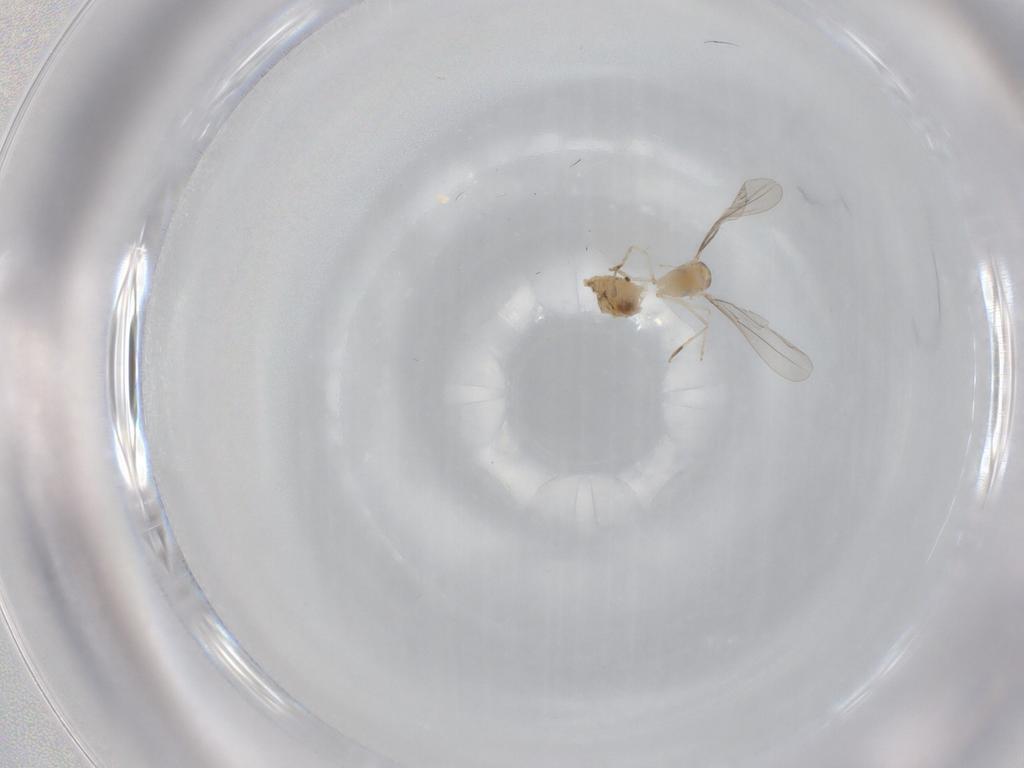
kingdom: Animalia
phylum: Arthropoda
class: Insecta
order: Diptera
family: Cecidomyiidae
